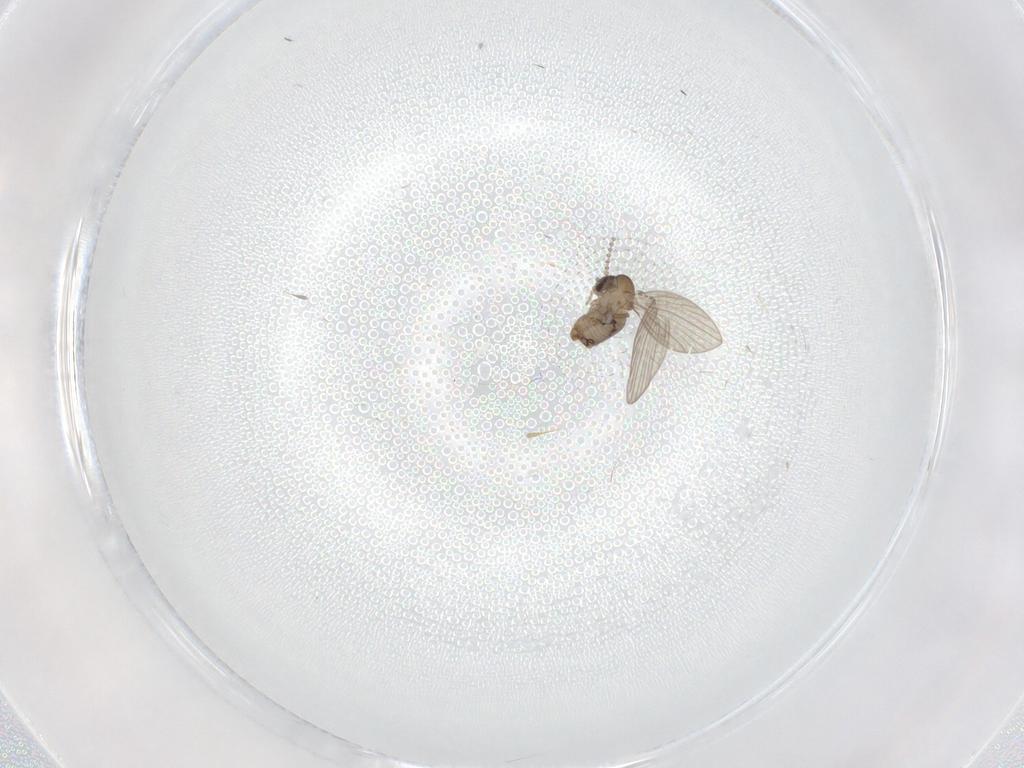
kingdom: Animalia
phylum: Arthropoda
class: Insecta
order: Diptera
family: Psychodidae
